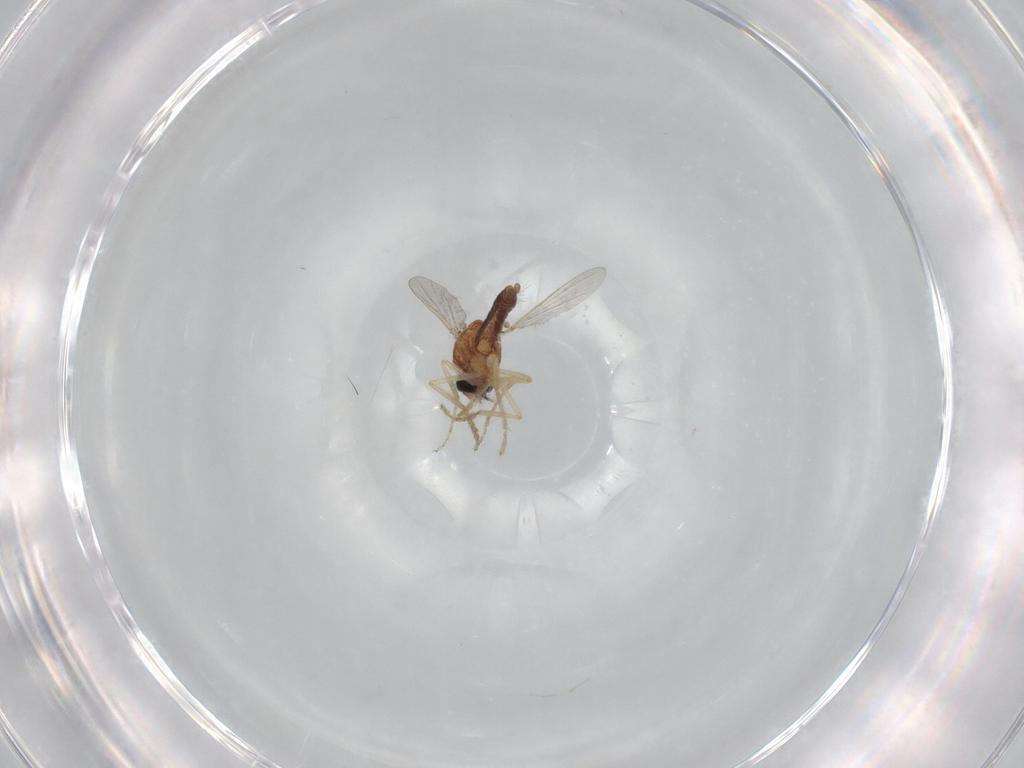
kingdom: Animalia
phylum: Arthropoda
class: Insecta
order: Diptera
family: Ceratopogonidae
